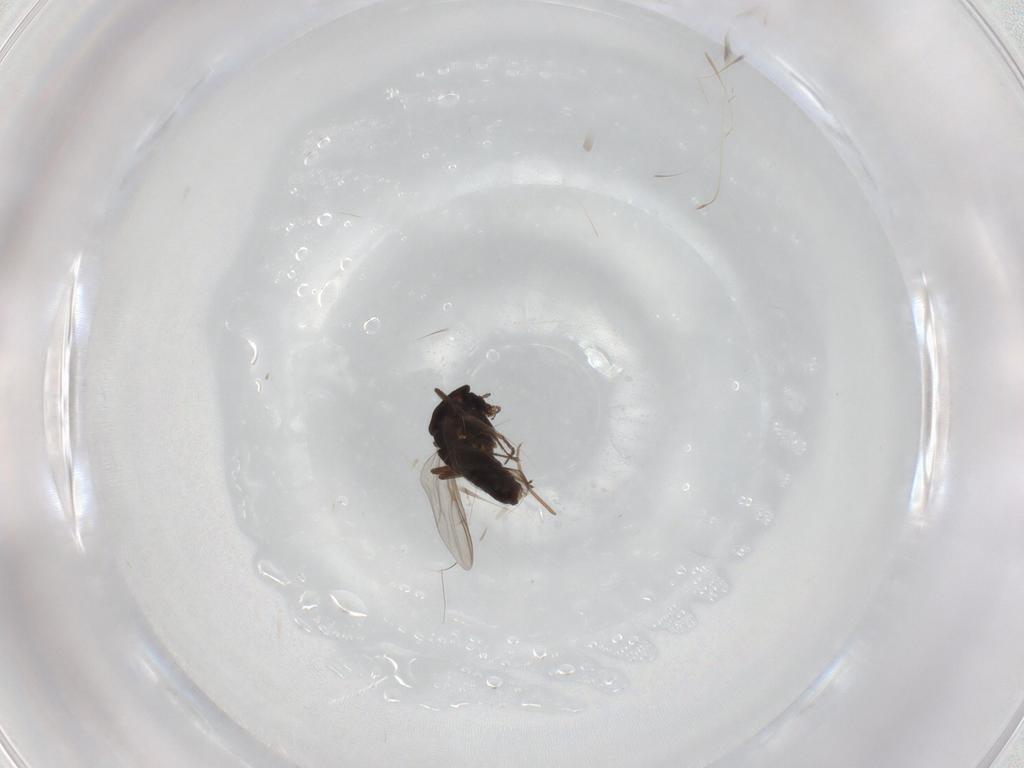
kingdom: Animalia
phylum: Arthropoda
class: Insecta
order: Diptera
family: Chironomidae
